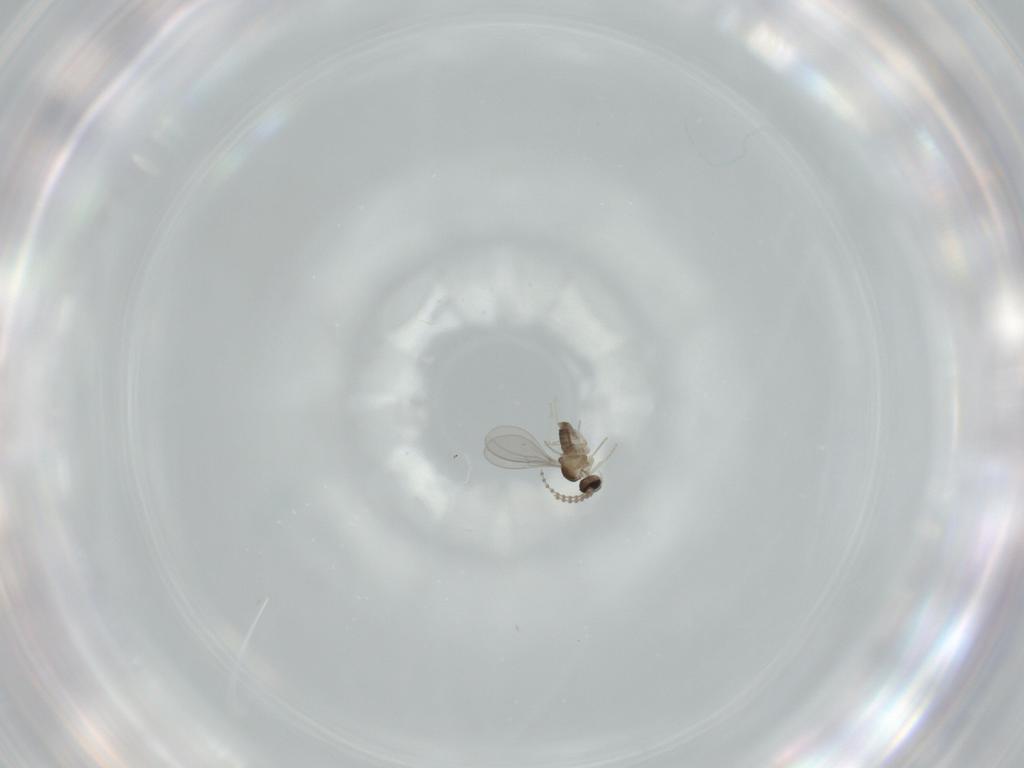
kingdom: Animalia
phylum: Arthropoda
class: Insecta
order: Diptera
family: Cecidomyiidae
